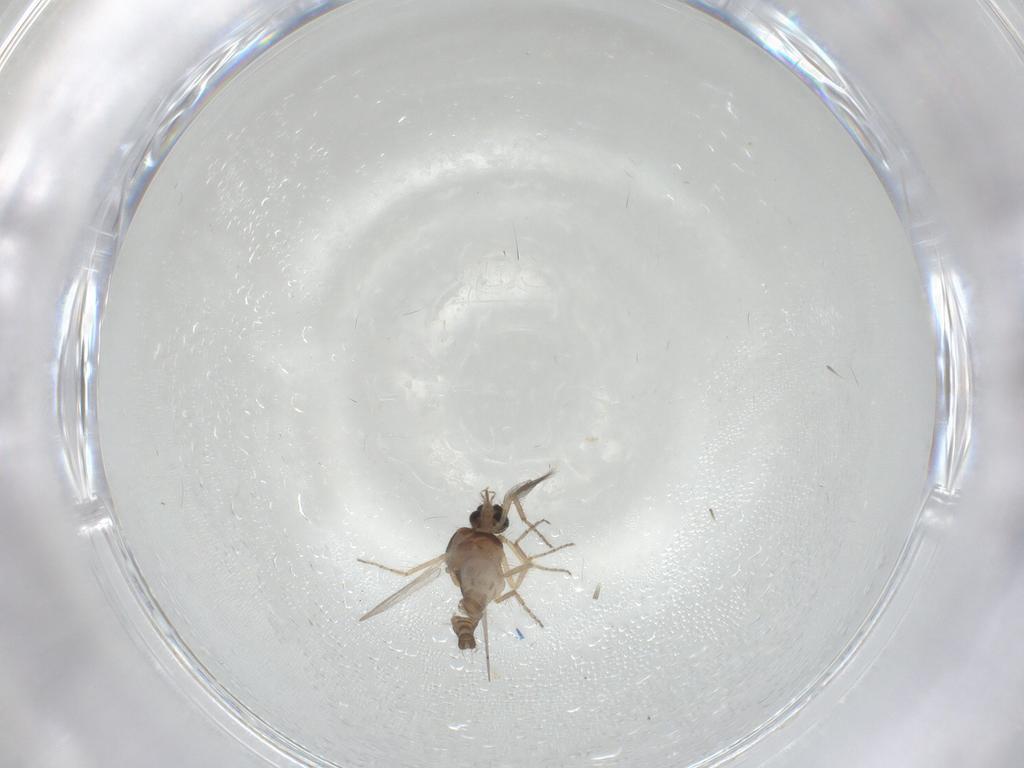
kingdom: Animalia
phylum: Arthropoda
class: Insecta
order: Diptera
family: Ceratopogonidae
